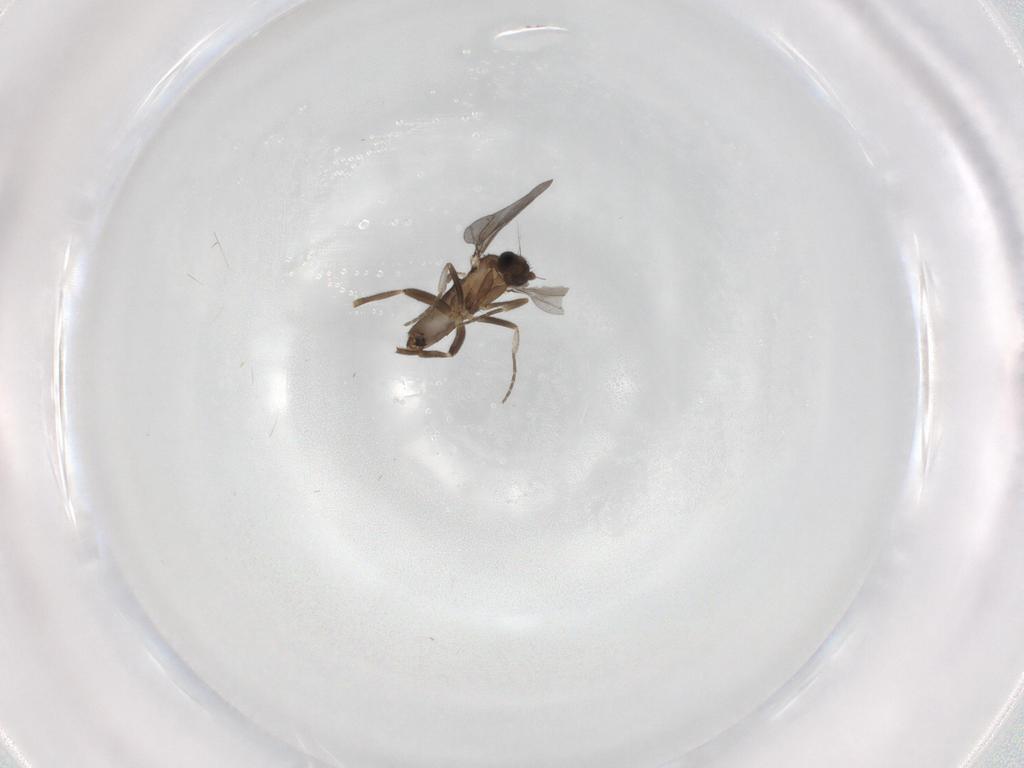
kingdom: Animalia
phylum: Arthropoda
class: Insecta
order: Diptera
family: Phoridae
